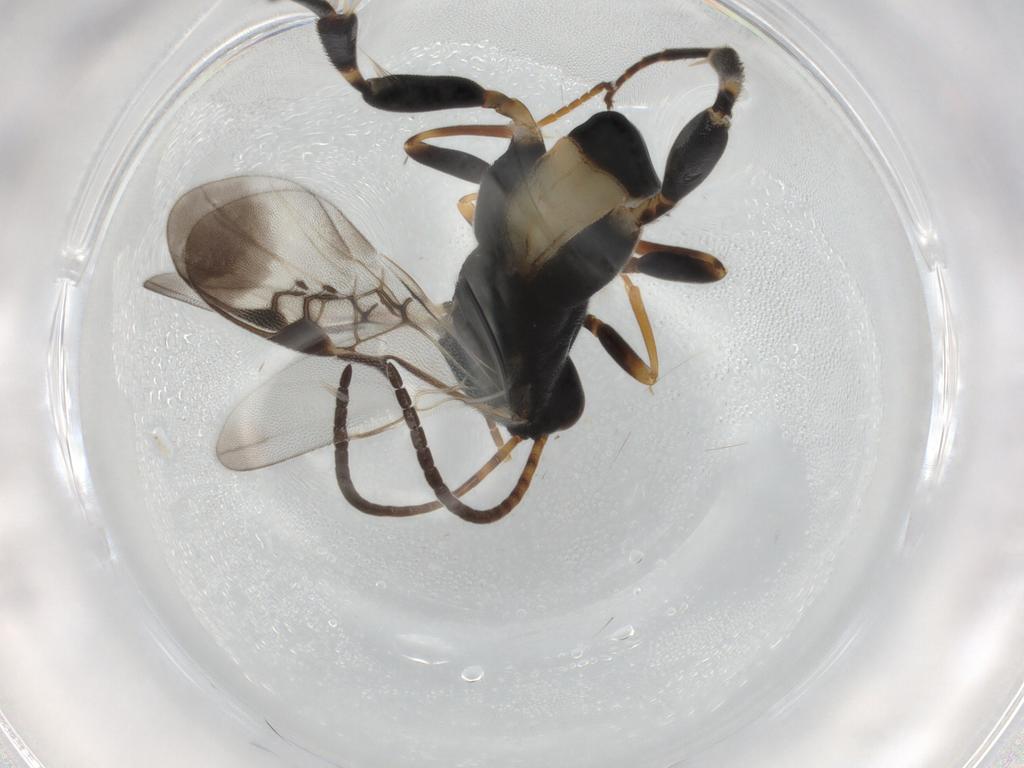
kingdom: Animalia
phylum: Arthropoda
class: Insecta
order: Hymenoptera
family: Braconidae
